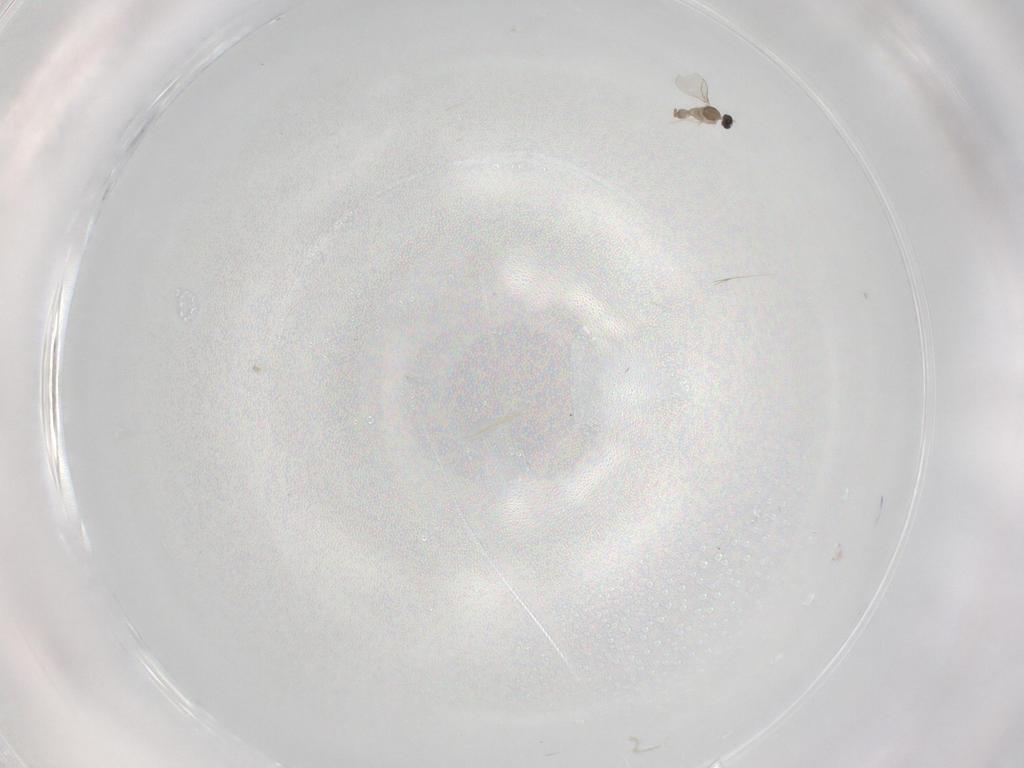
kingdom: Animalia
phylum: Arthropoda
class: Insecta
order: Diptera
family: Cecidomyiidae
